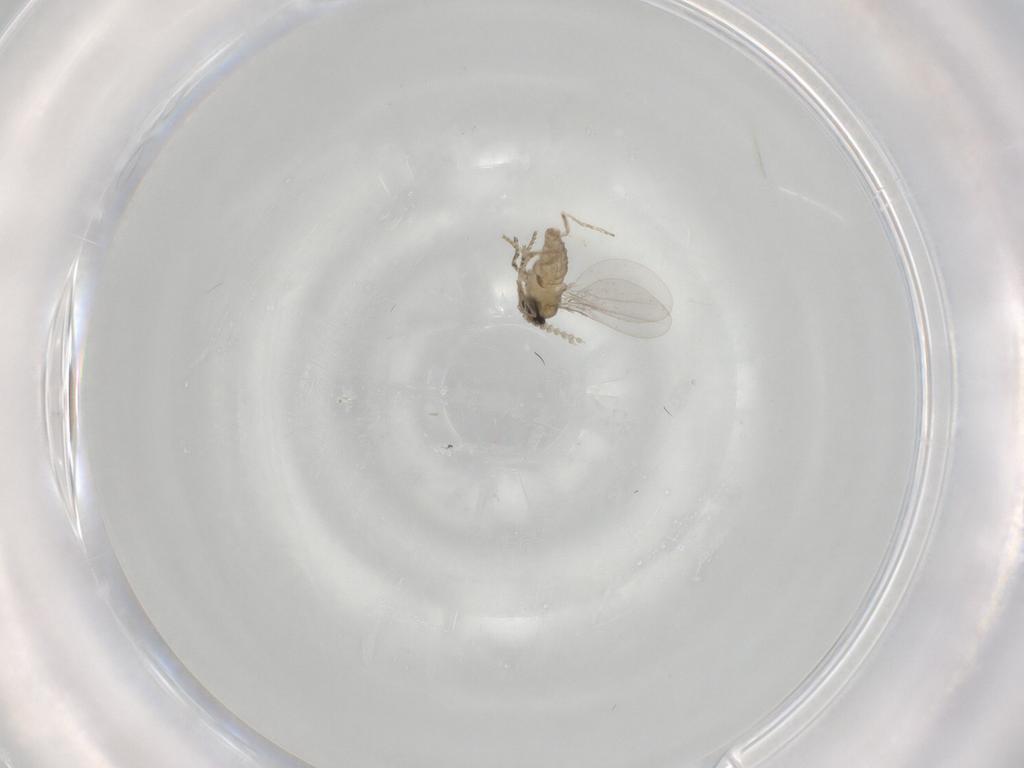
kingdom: Animalia
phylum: Arthropoda
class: Insecta
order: Diptera
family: Cecidomyiidae
